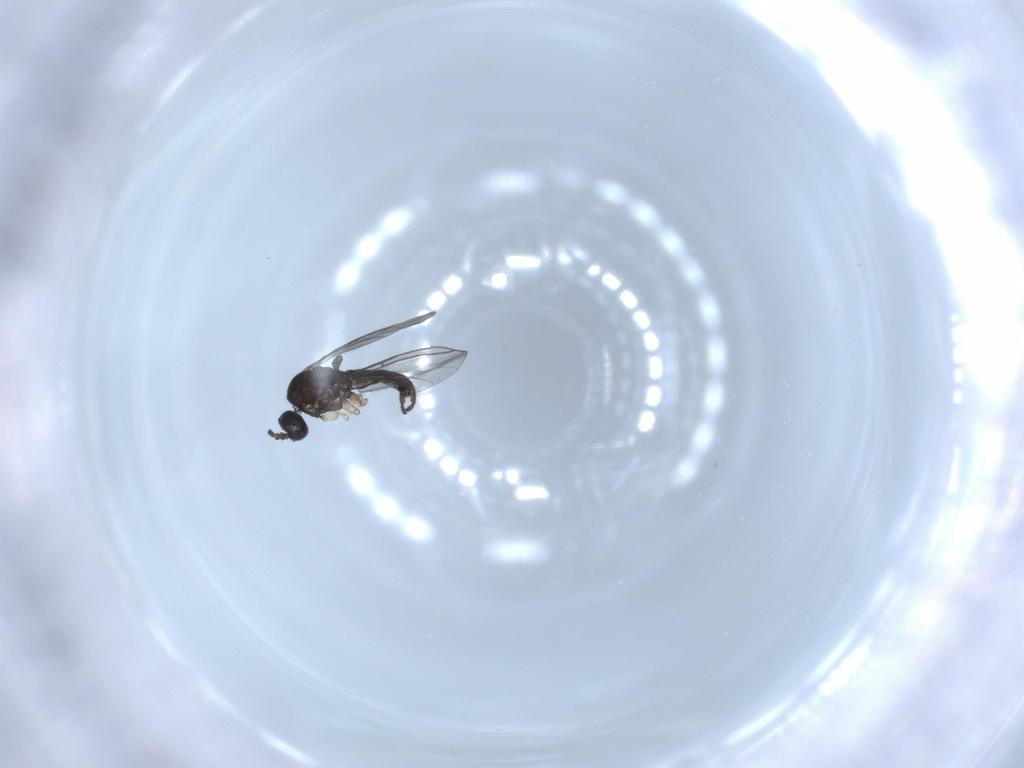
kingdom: Animalia
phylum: Arthropoda
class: Insecta
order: Diptera
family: Sciaridae
